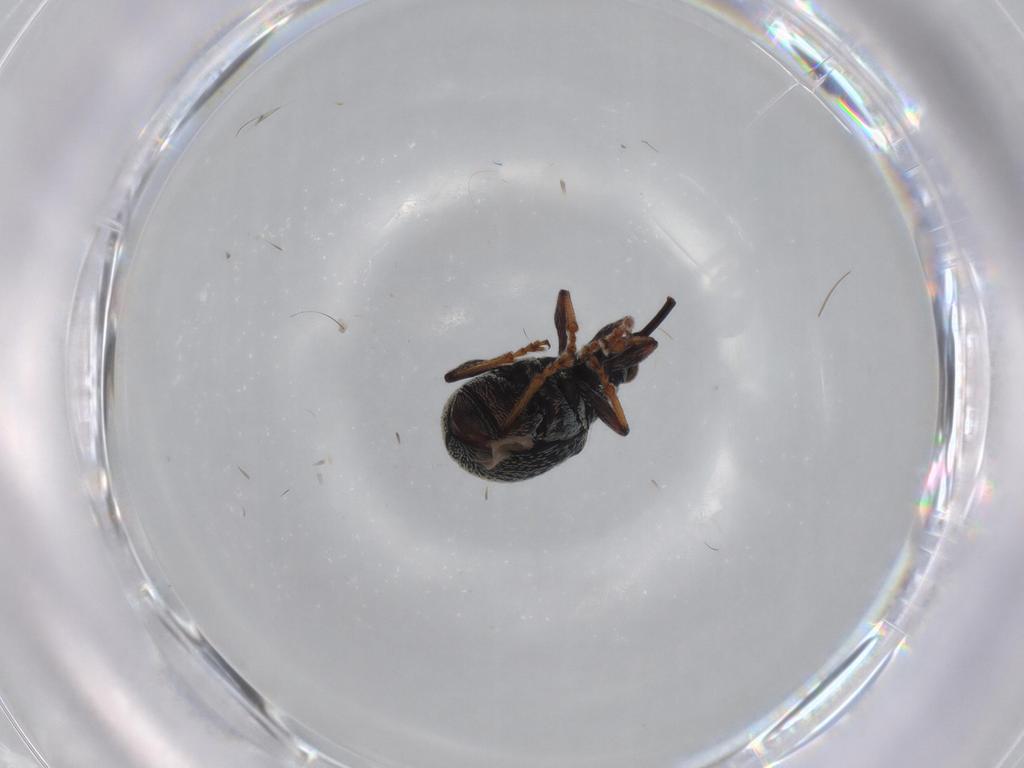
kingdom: Animalia
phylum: Arthropoda
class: Insecta
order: Coleoptera
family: Brentidae
